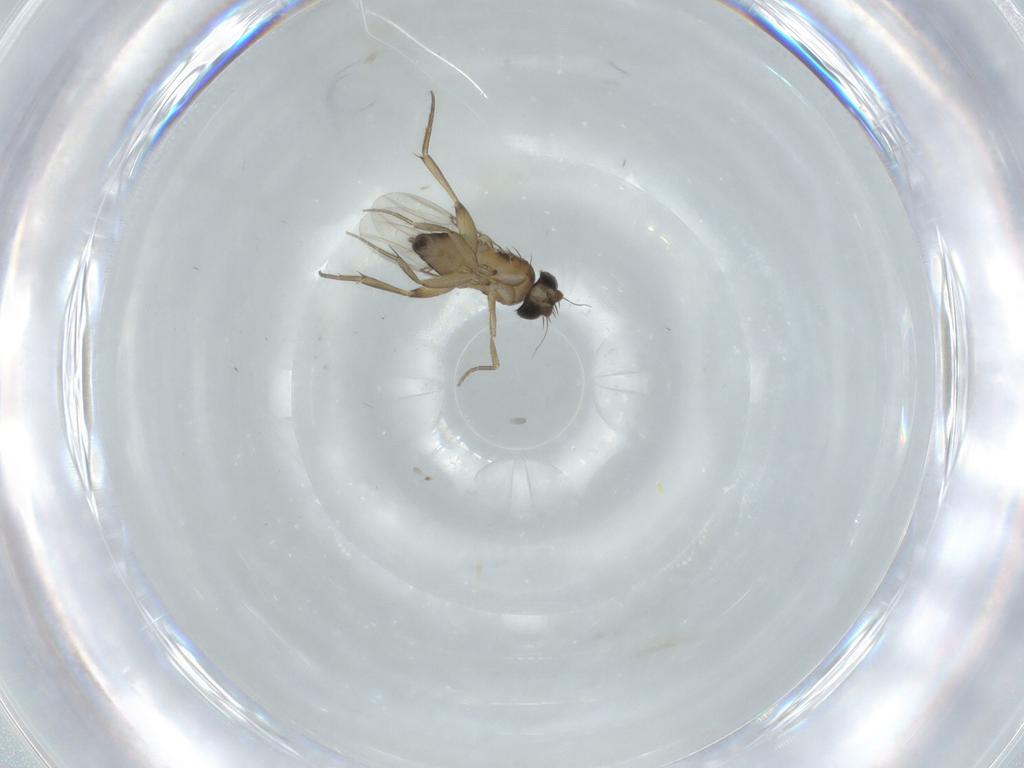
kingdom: Animalia
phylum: Arthropoda
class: Insecta
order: Diptera
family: Phoridae
